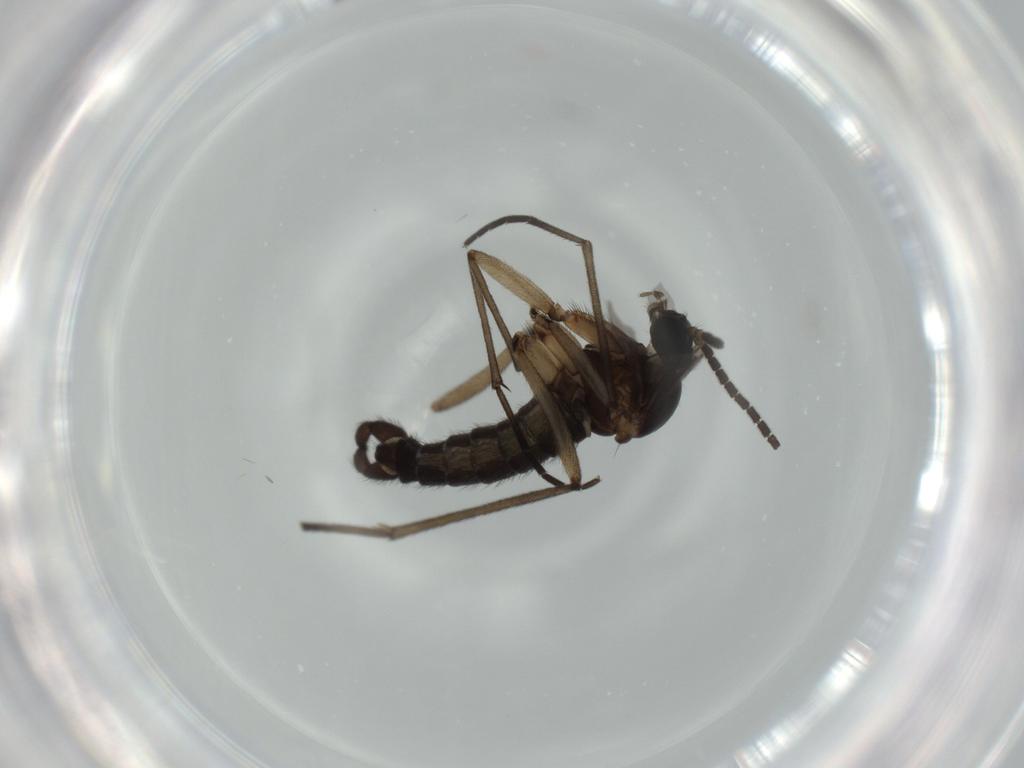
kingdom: Animalia
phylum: Arthropoda
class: Insecta
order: Diptera
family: Sciaridae
